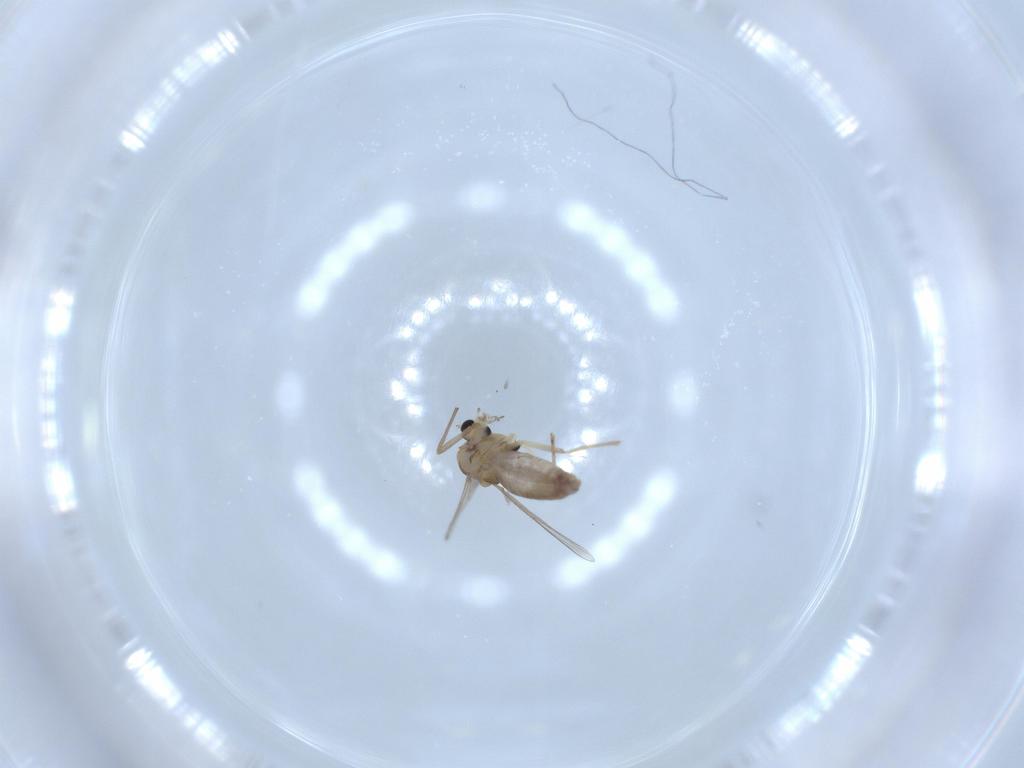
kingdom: Animalia
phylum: Arthropoda
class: Insecta
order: Diptera
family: Chironomidae
